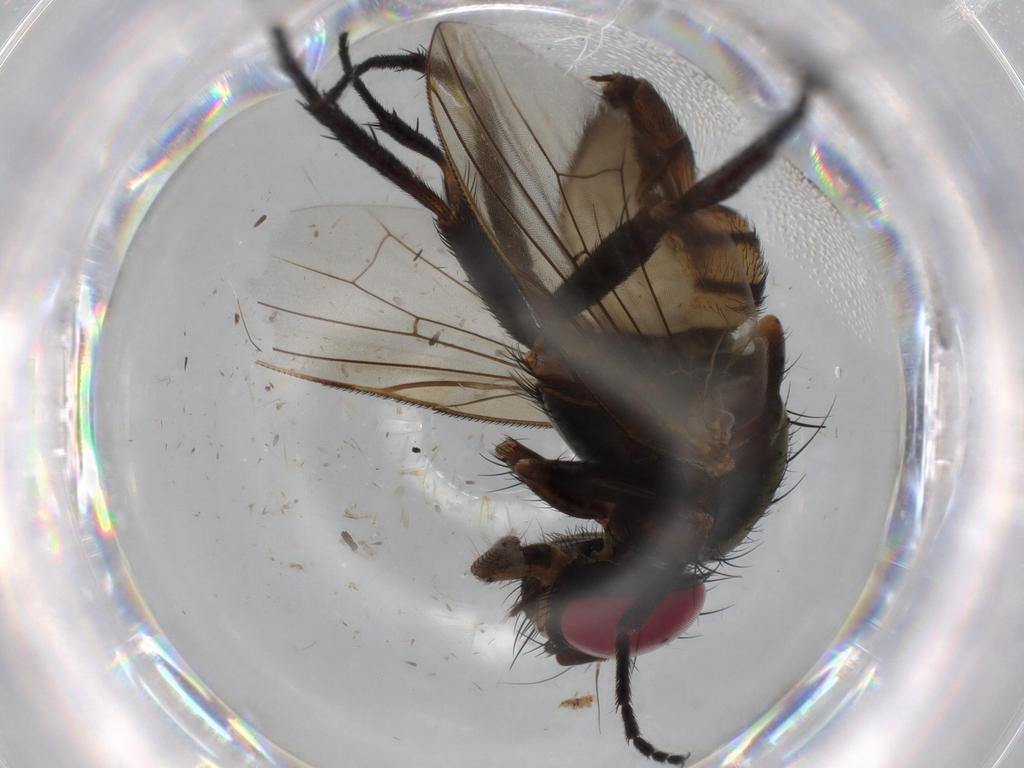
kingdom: Animalia
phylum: Arthropoda
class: Insecta
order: Diptera
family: Fannia
